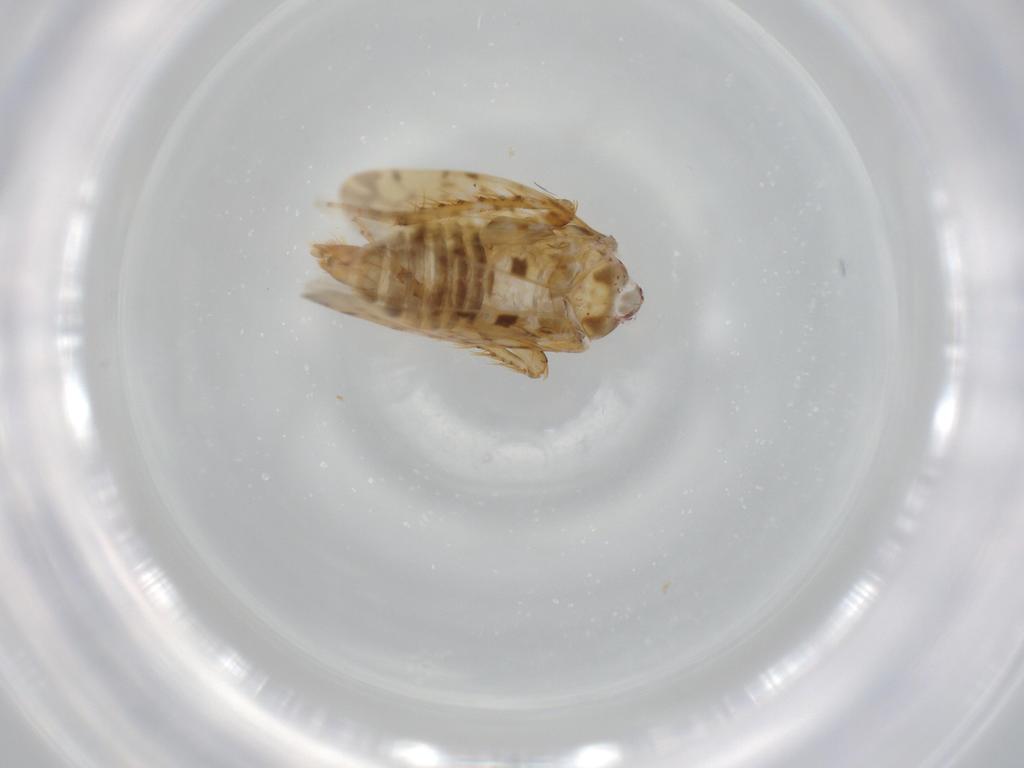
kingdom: Animalia
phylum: Arthropoda
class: Insecta
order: Hemiptera
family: Cicadellidae
